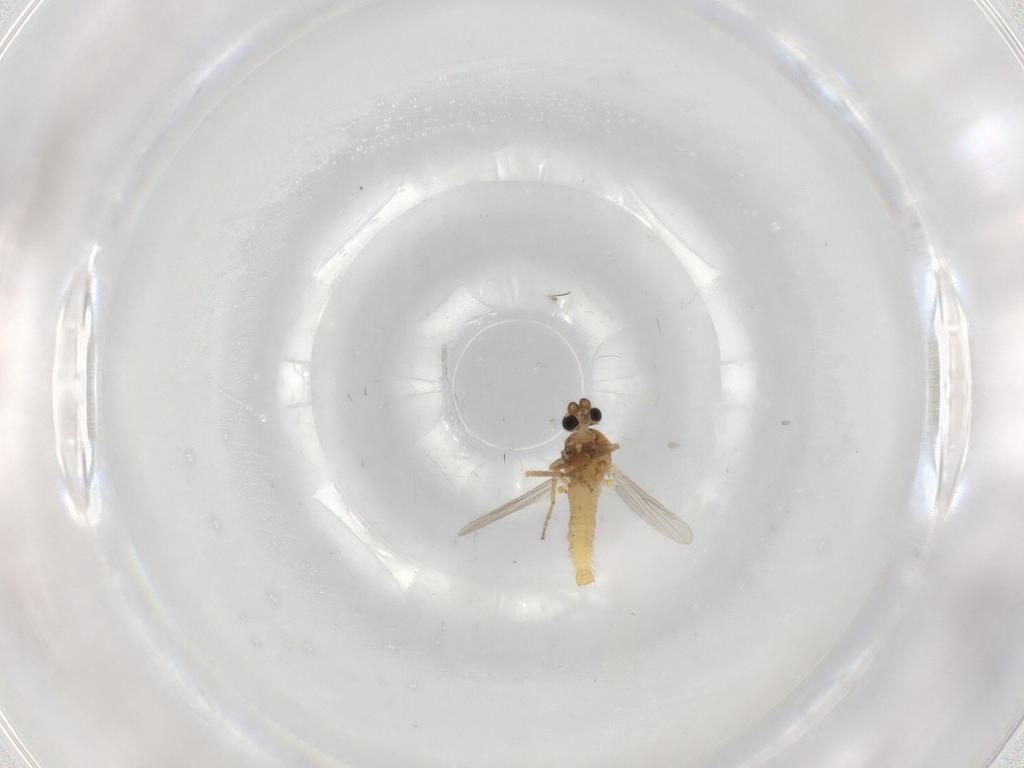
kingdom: Animalia
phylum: Arthropoda
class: Insecta
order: Diptera
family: Ceratopogonidae
